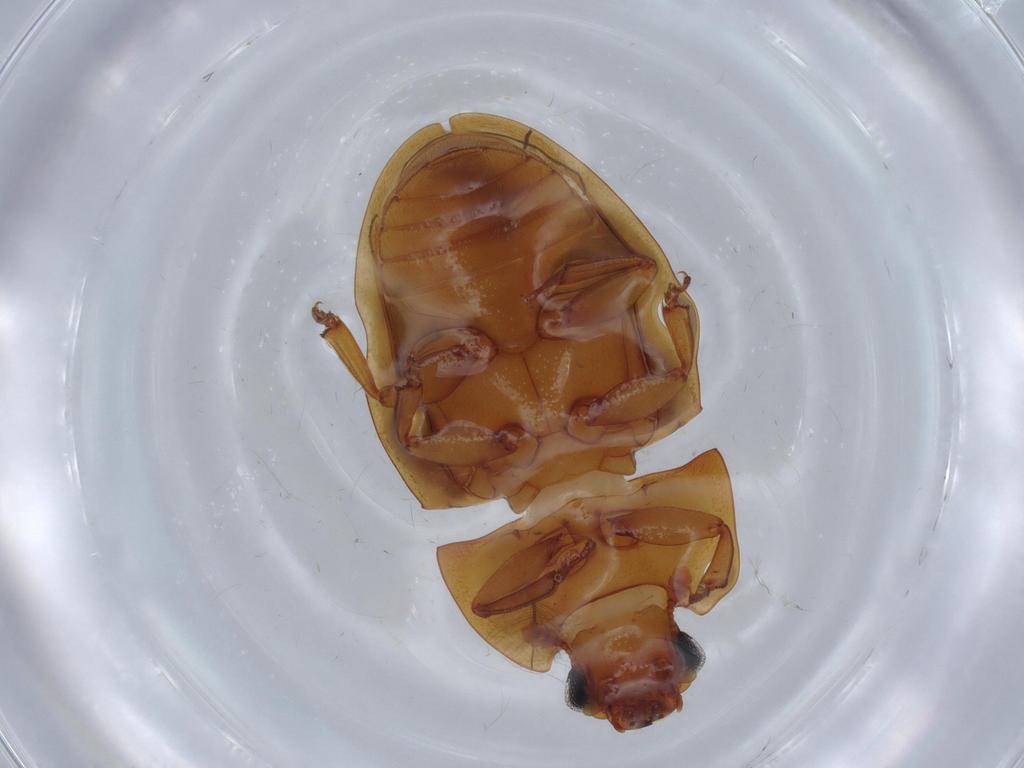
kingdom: Animalia
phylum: Arthropoda
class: Insecta
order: Coleoptera
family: Nitidulidae
